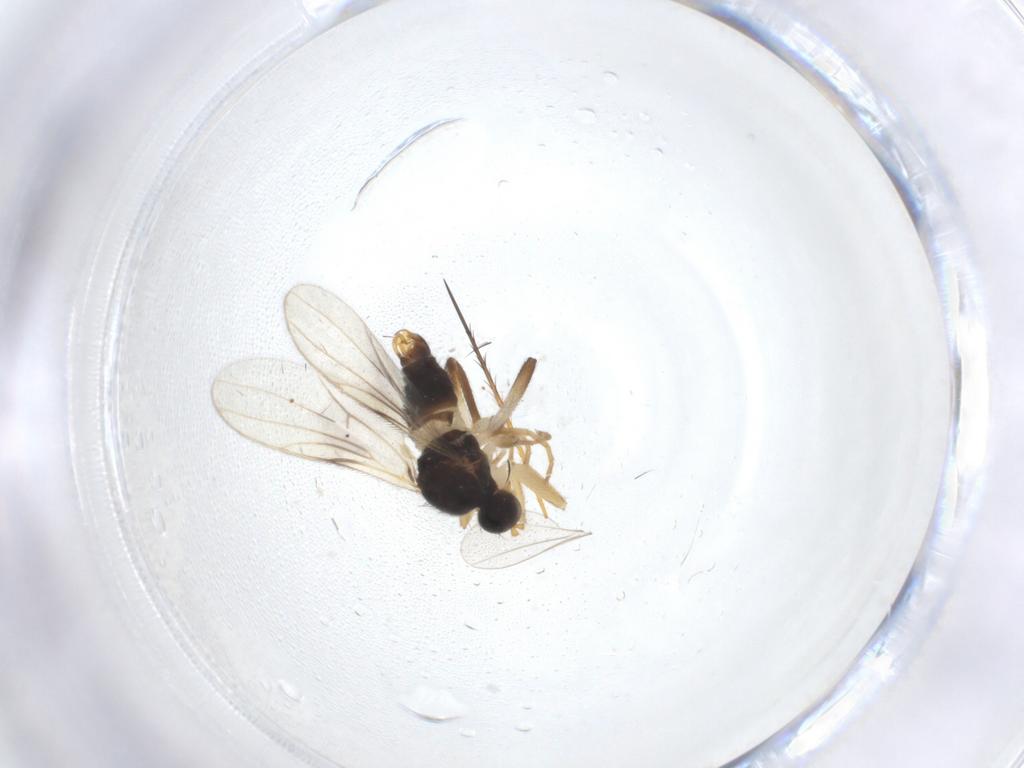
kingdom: Animalia
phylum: Arthropoda
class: Insecta
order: Diptera
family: Hybotidae
